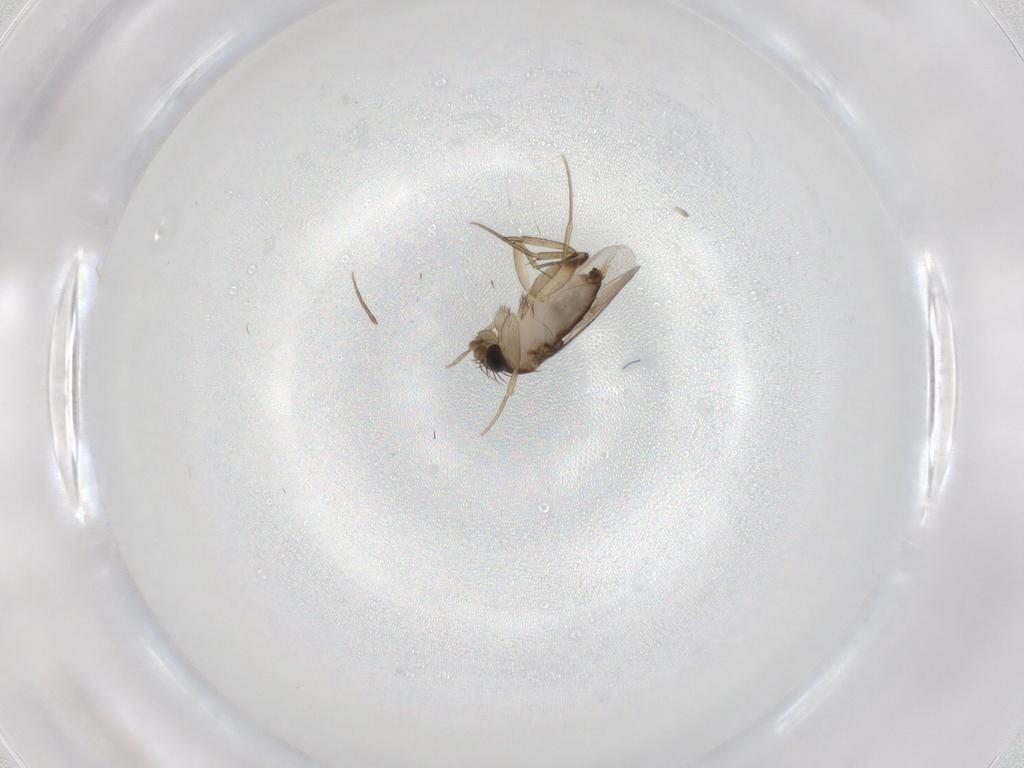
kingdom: Animalia
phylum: Arthropoda
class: Insecta
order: Diptera
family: Phoridae
